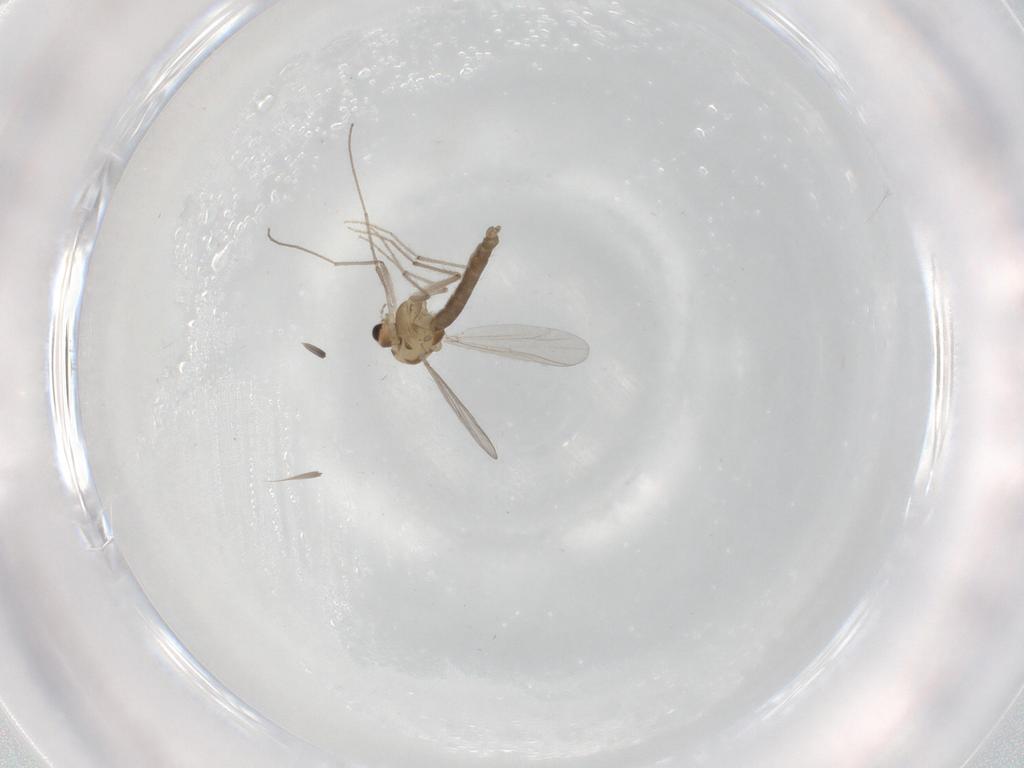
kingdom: Animalia
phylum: Arthropoda
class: Insecta
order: Diptera
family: Chironomidae
